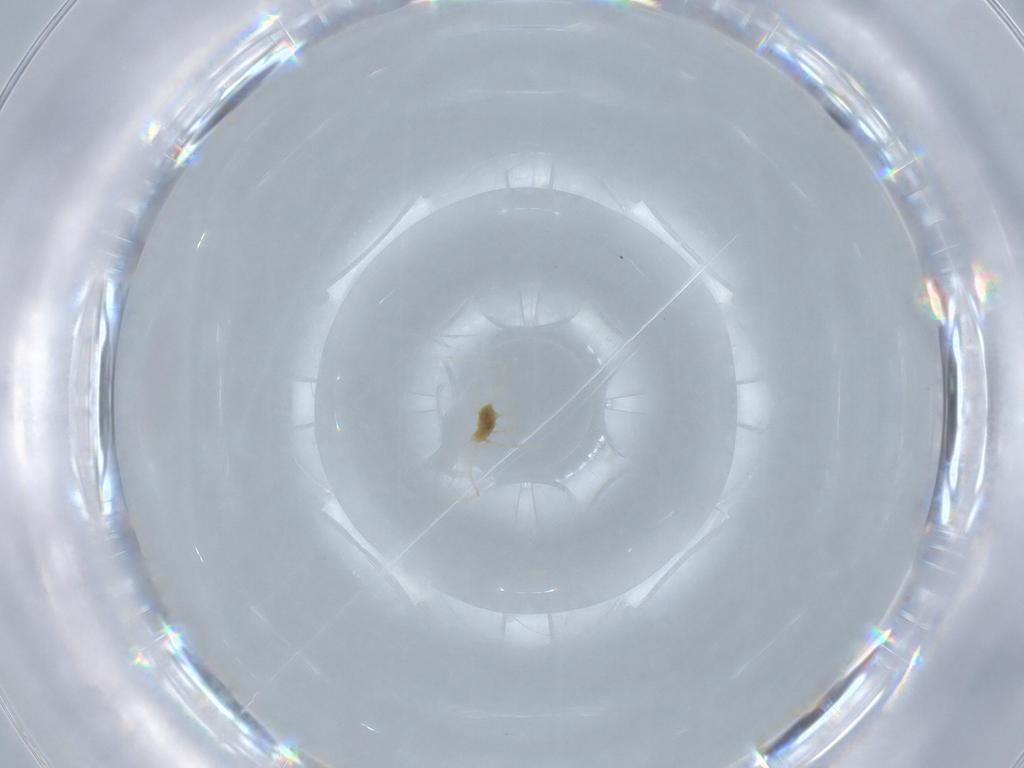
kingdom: Animalia
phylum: Arthropoda
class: Arachnida
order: Trombidiformes
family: Tetranychidae
